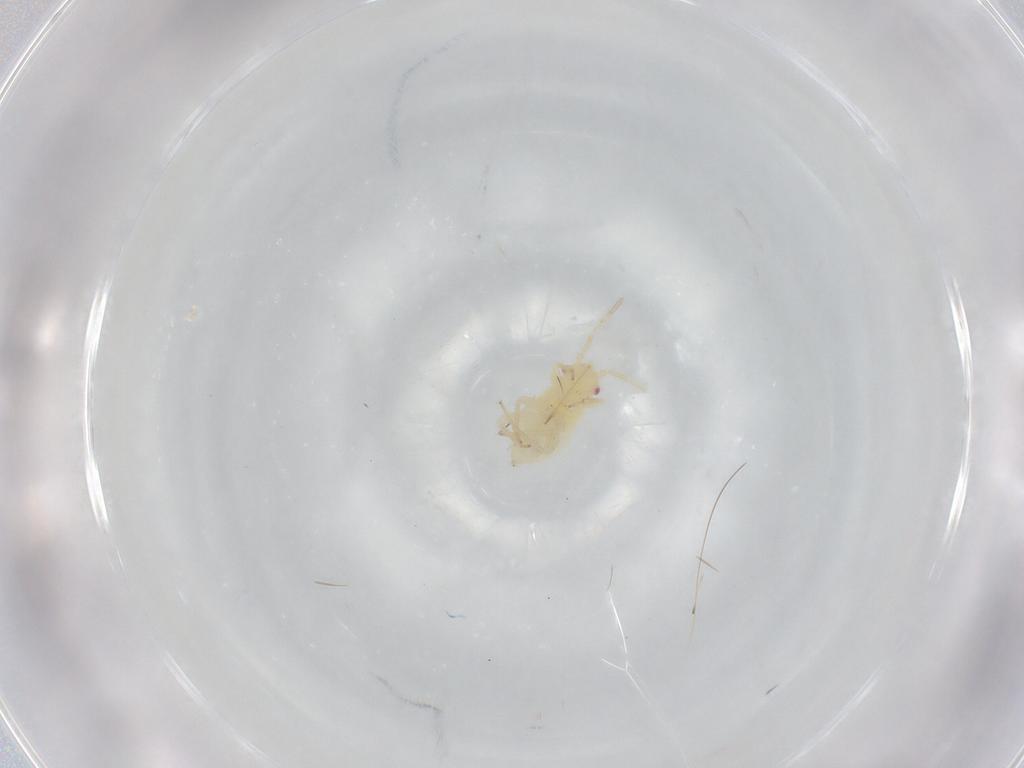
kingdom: Animalia
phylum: Arthropoda
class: Insecta
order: Hemiptera
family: Miridae
